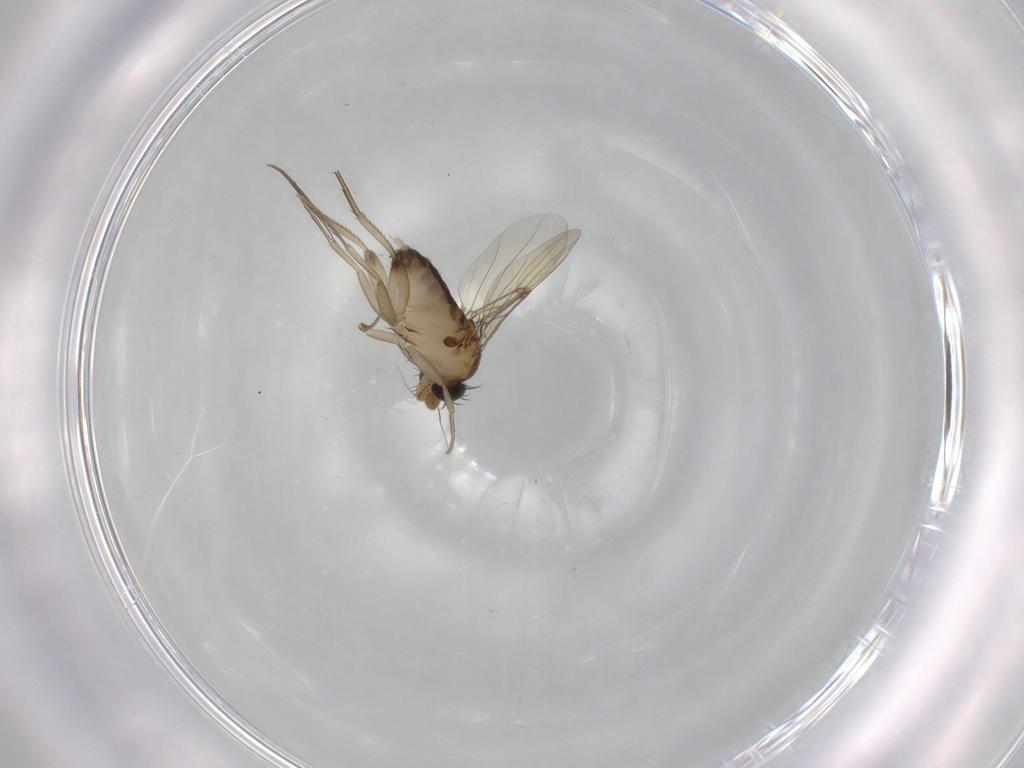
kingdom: Animalia
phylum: Arthropoda
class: Insecta
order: Diptera
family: Phoridae
